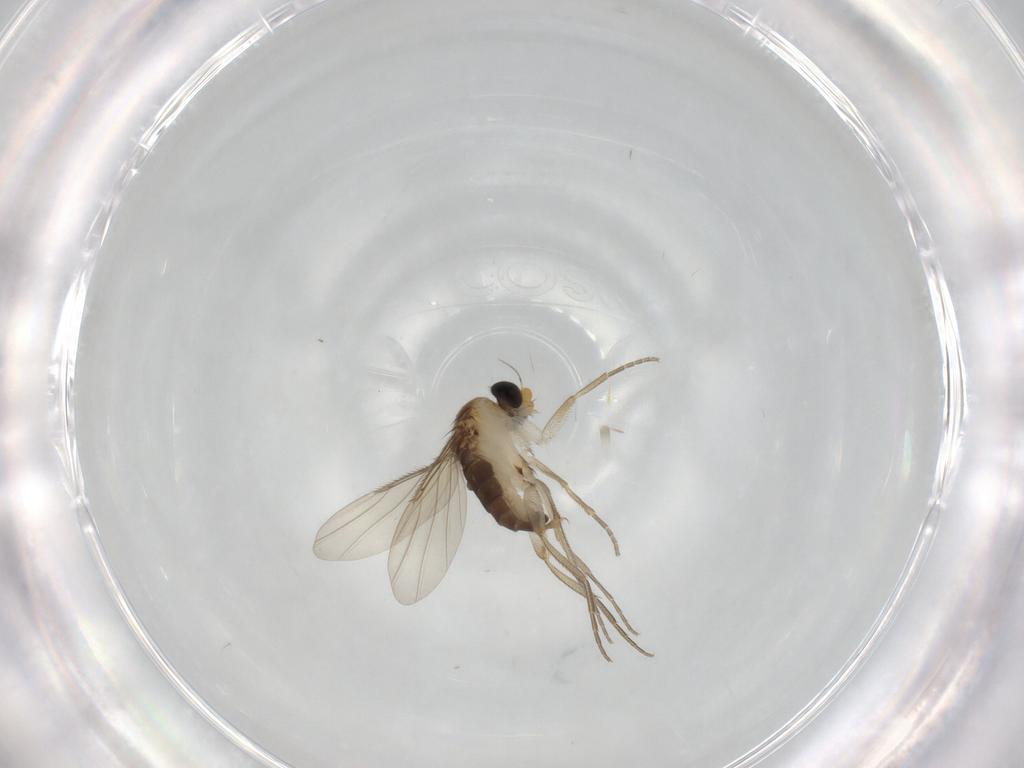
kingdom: Animalia
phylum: Arthropoda
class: Insecta
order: Diptera
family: Phoridae
